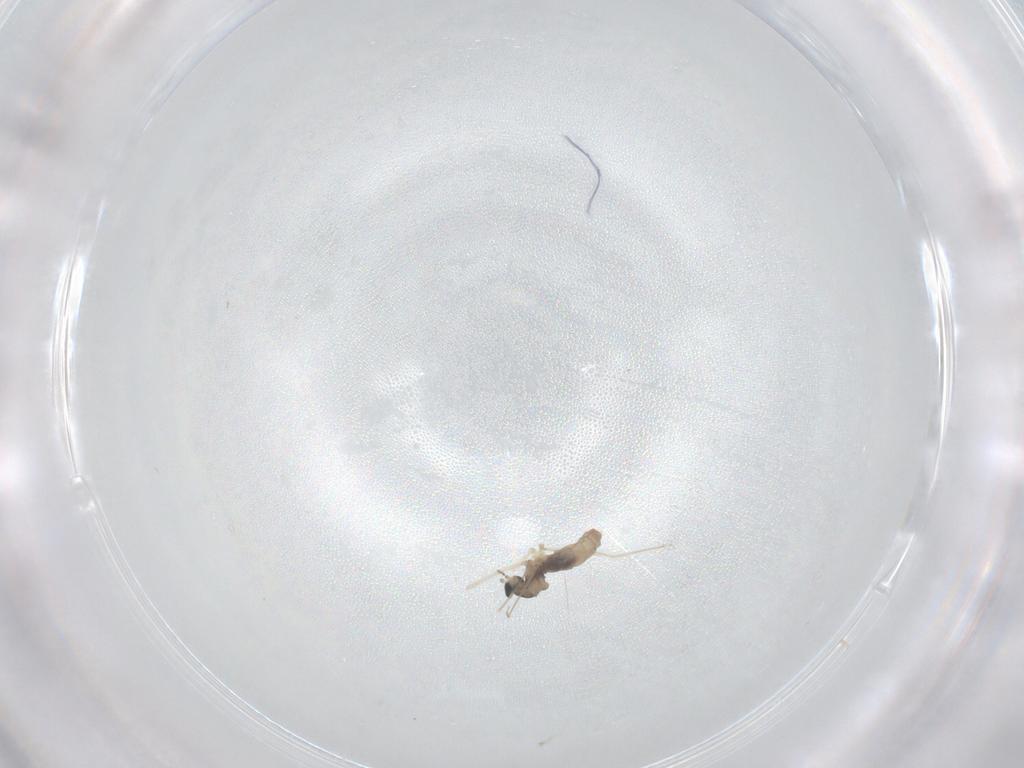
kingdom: Animalia
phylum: Arthropoda
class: Insecta
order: Diptera
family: Cecidomyiidae
